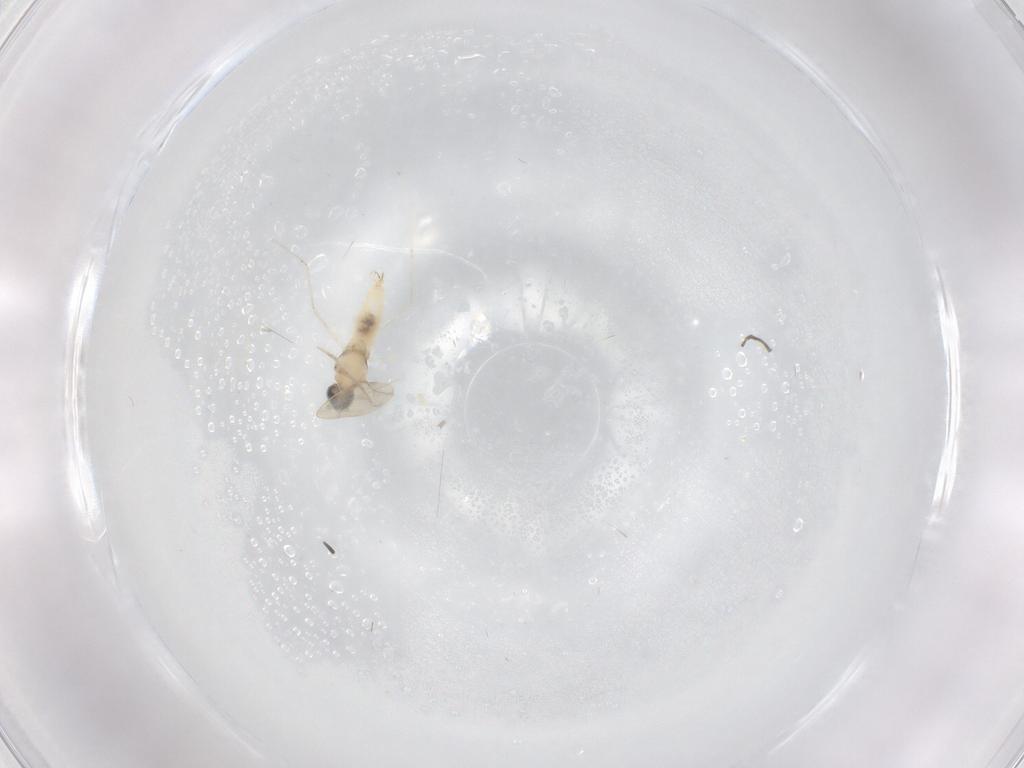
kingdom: Animalia
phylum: Arthropoda
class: Insecta
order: Diptera
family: Cecidomyiidae
